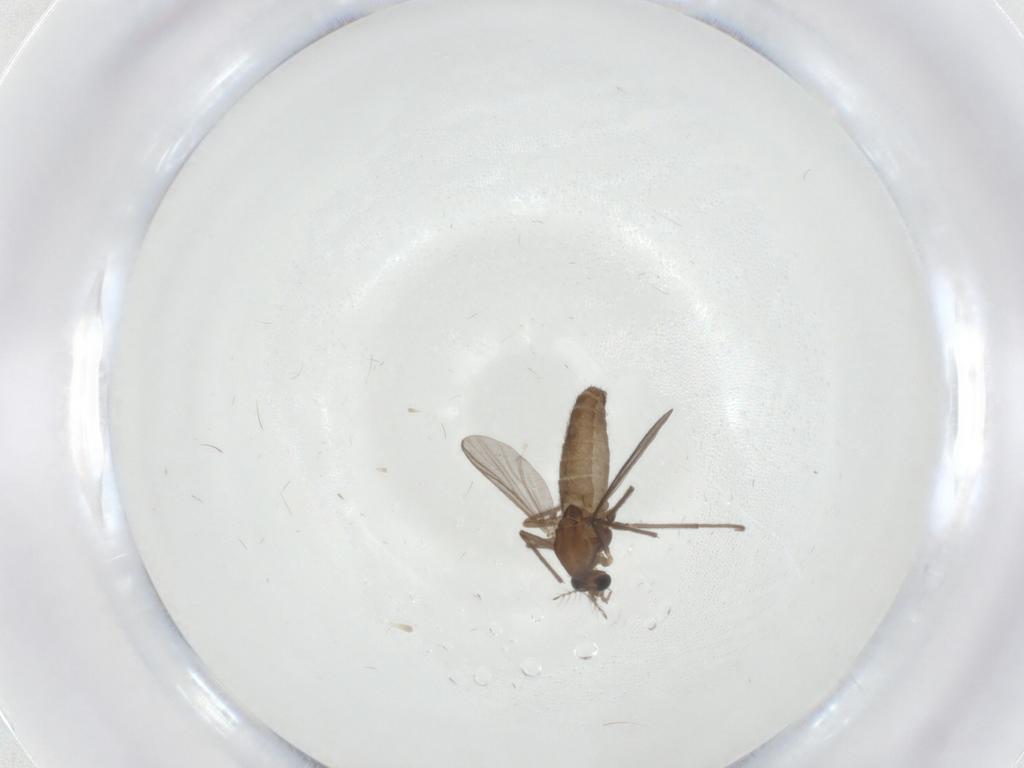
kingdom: Animalia
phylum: Arthropoda
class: Insecta
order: Diptera
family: Chironomidae
